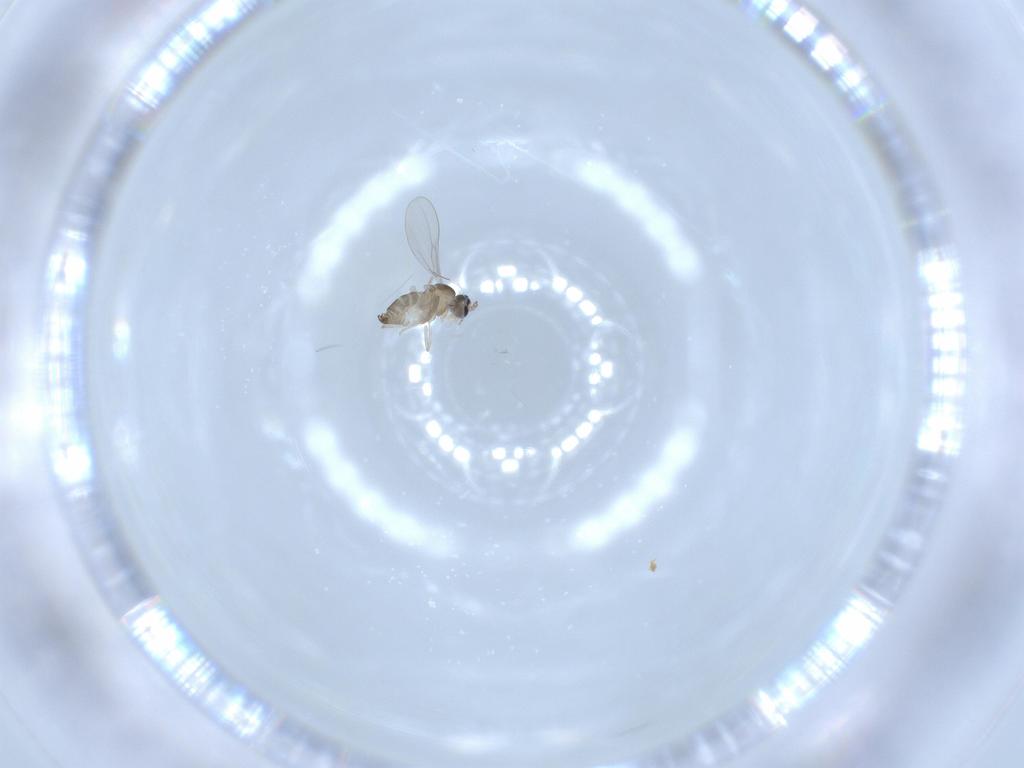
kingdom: Animalia
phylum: Arthropoda
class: Insecta
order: Diptera
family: Cecidomyiidae
